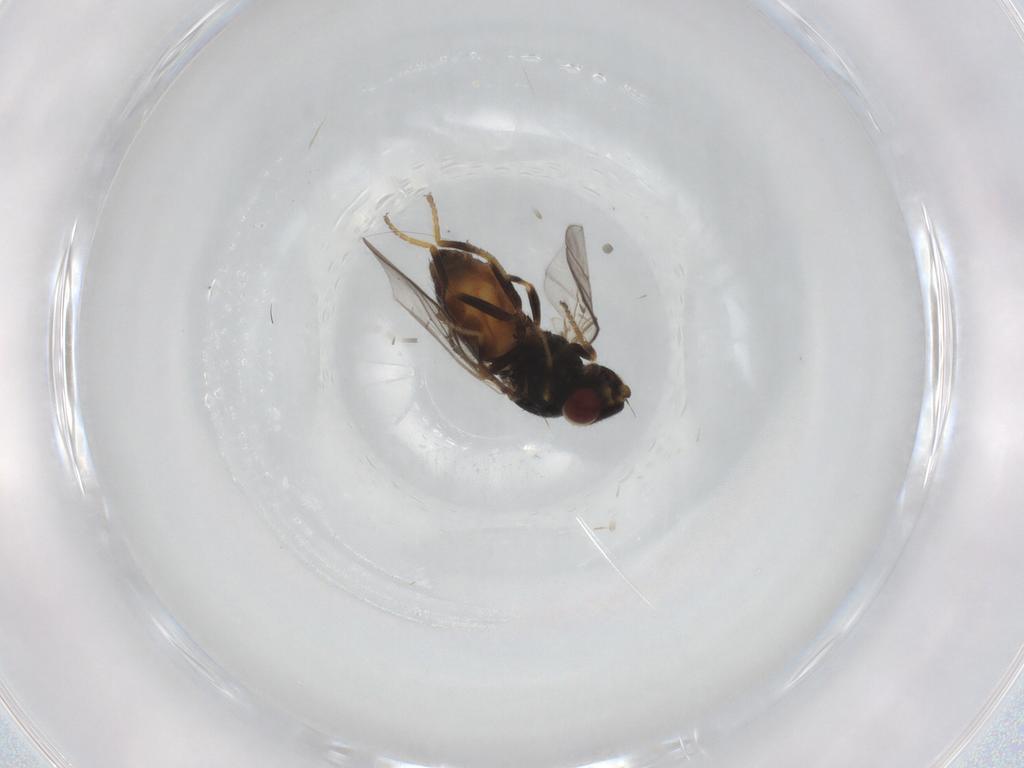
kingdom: Animalia
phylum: Arthropoda
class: Insecta
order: Diptera
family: Chloropidae
